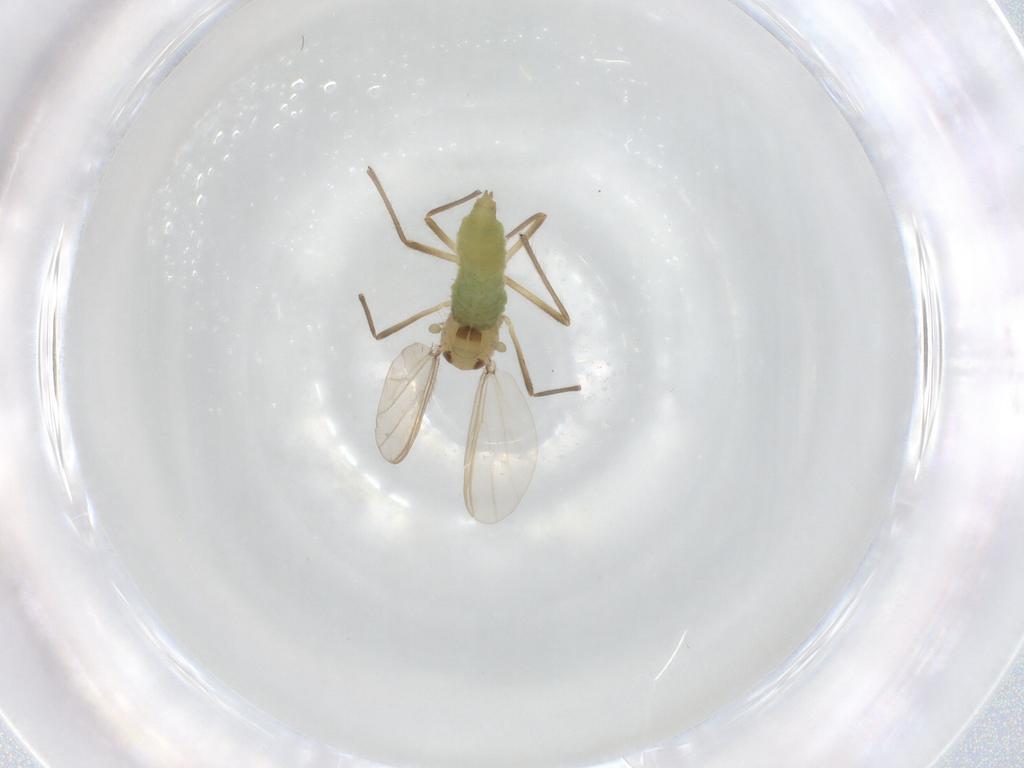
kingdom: Animalia
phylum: Arthropoda
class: Insecta
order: Diptera
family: Chironomidae
